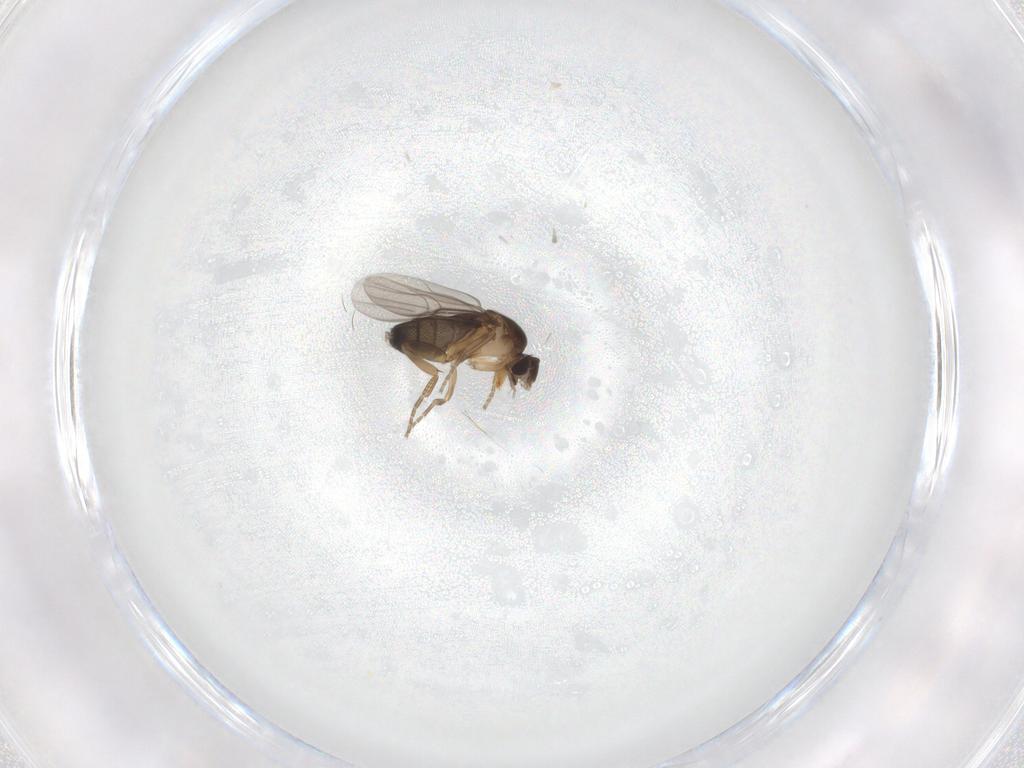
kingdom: Animalia
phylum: Arthropoda
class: Insecta
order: Diptera
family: Phoridae
